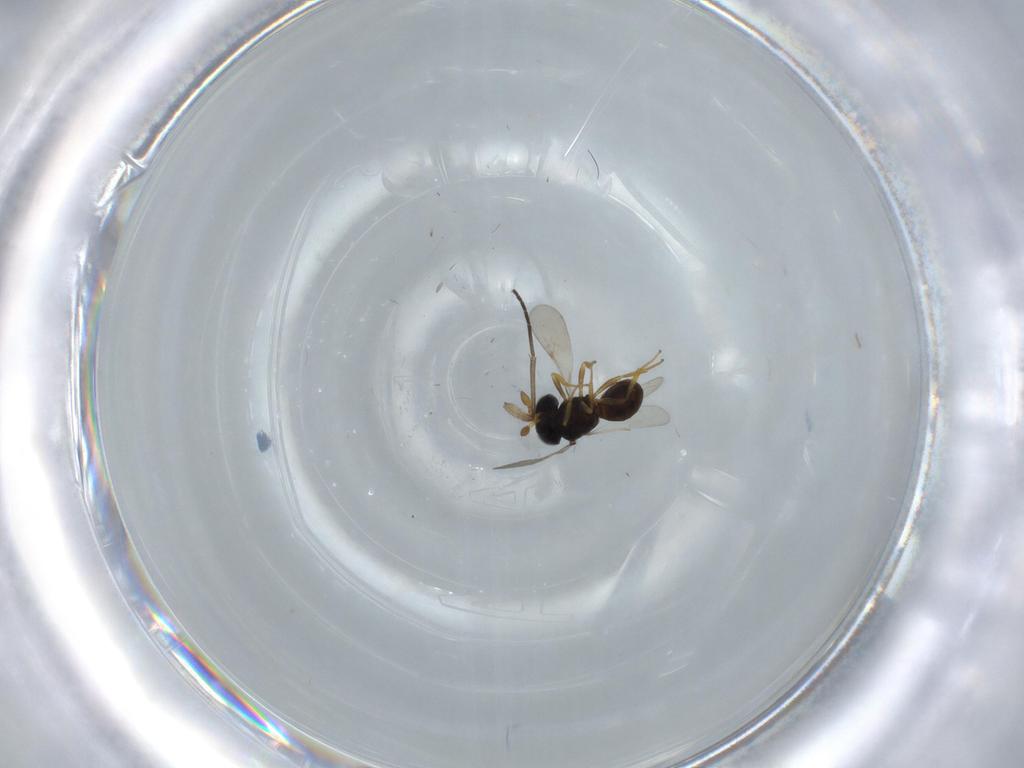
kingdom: Animalia
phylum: Arthropoda
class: Insecta
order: Hymenoptera
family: Scelionidae
